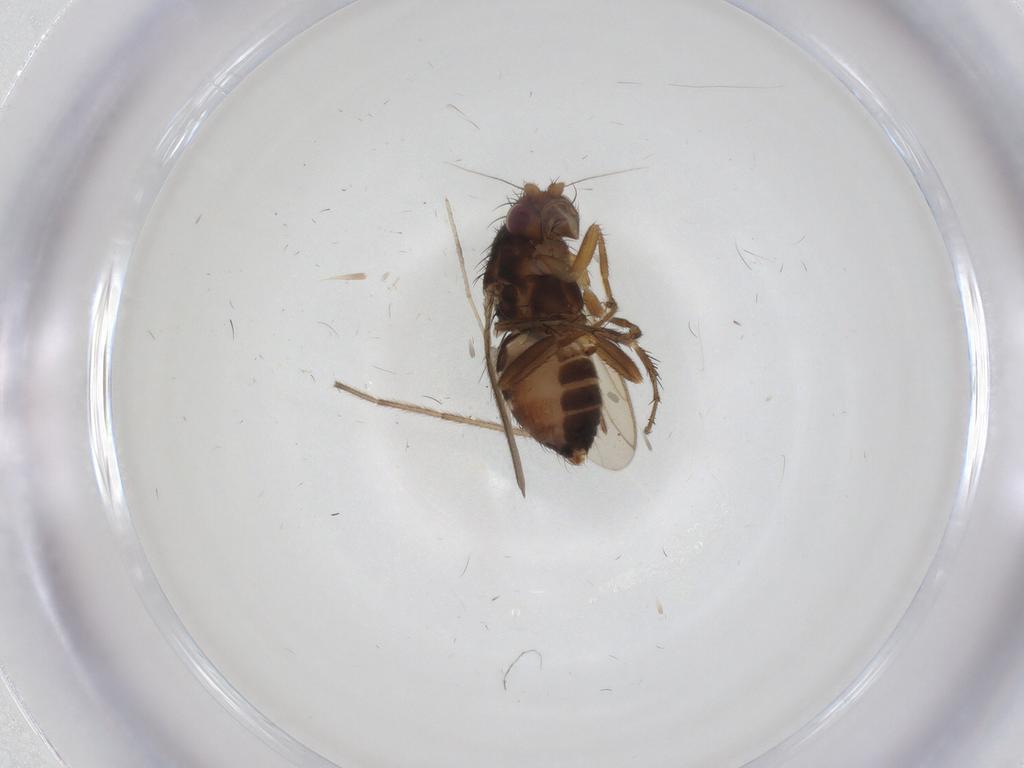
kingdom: Animalia
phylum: Arthropoda
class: Insecta
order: Diptera
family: Sphaeroceridae
